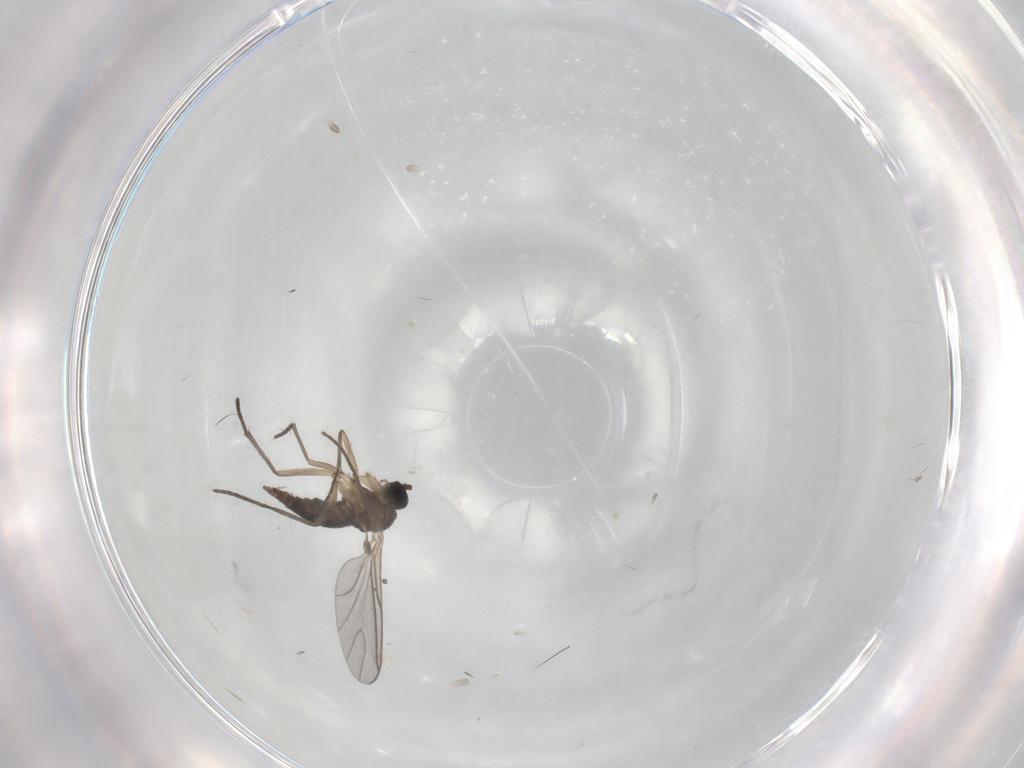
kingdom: Animalia
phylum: Arthropoda
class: Insecta
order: Diptera
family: Sciaridae
